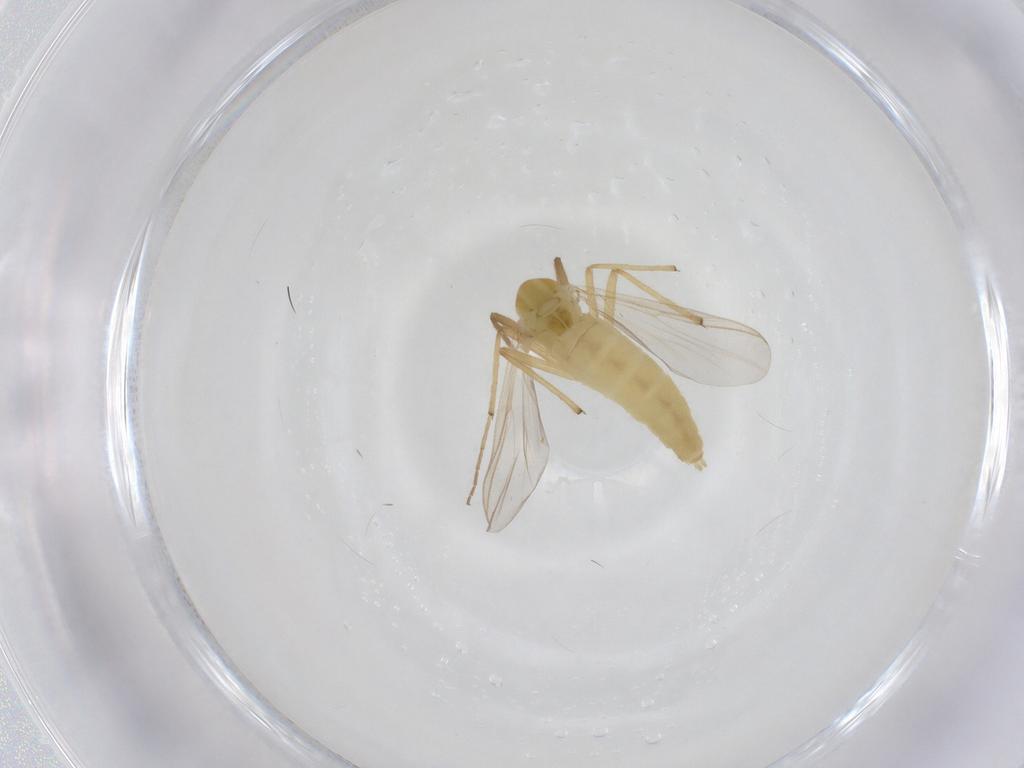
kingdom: Animalia
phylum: Arthropoda
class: Insecta
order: Diptera
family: Chironomidae
